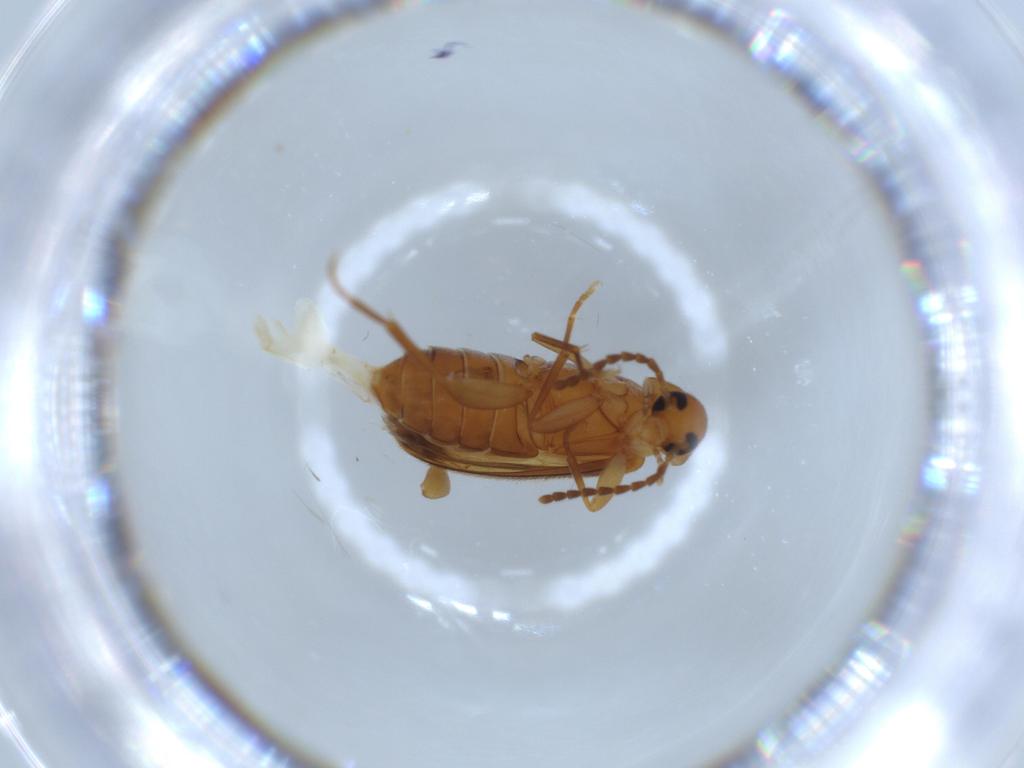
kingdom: Animalia
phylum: Arthropoda
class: Insecta
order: Coleoptera
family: Scraptiidae
